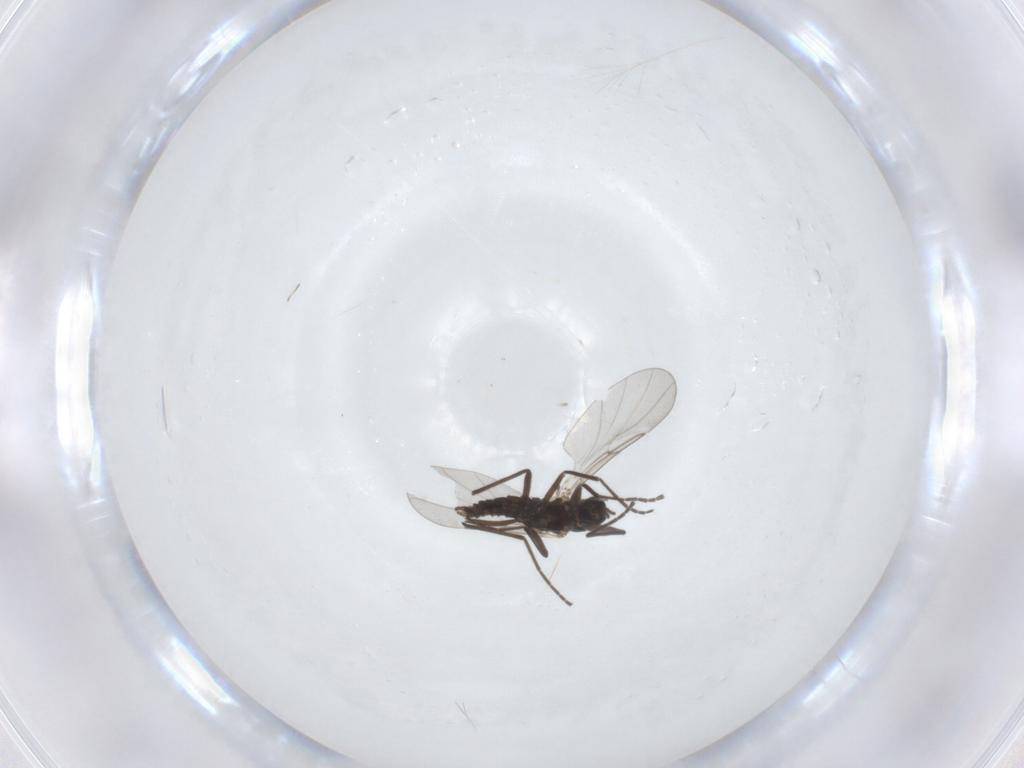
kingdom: Animalia
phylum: Arthropoda
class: Insecta
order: Diptera
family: Cecidomyiidae
